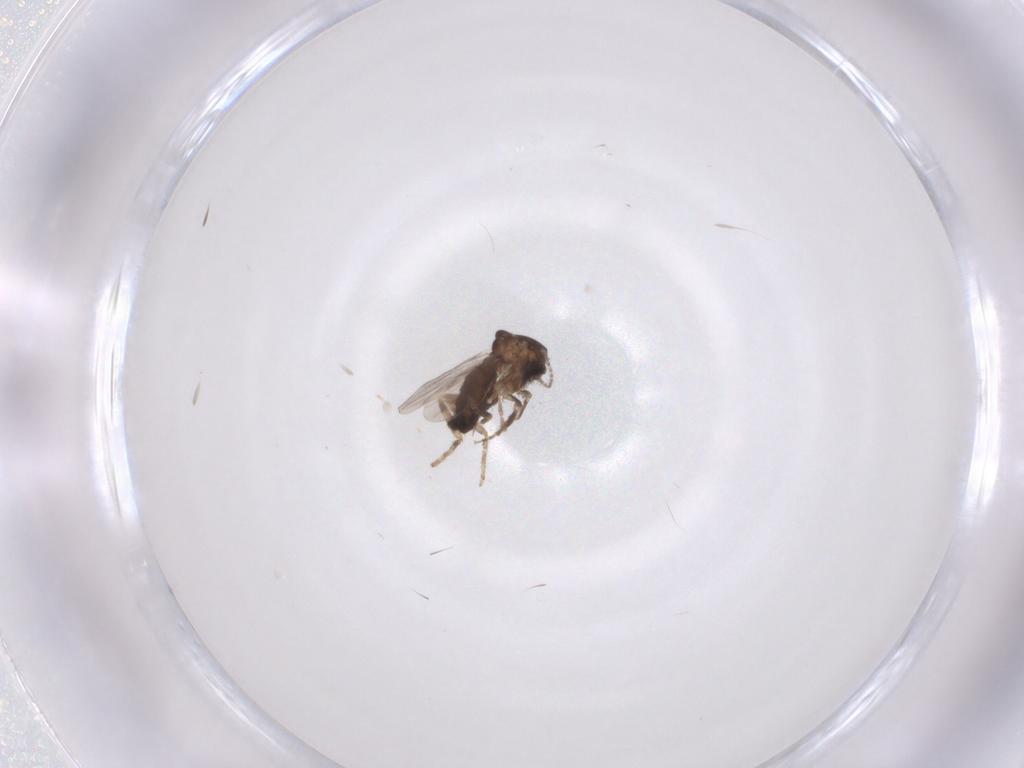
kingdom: Animalia
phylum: Arthropoda
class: Insecta
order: Diptera
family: Ceratopogonidae
